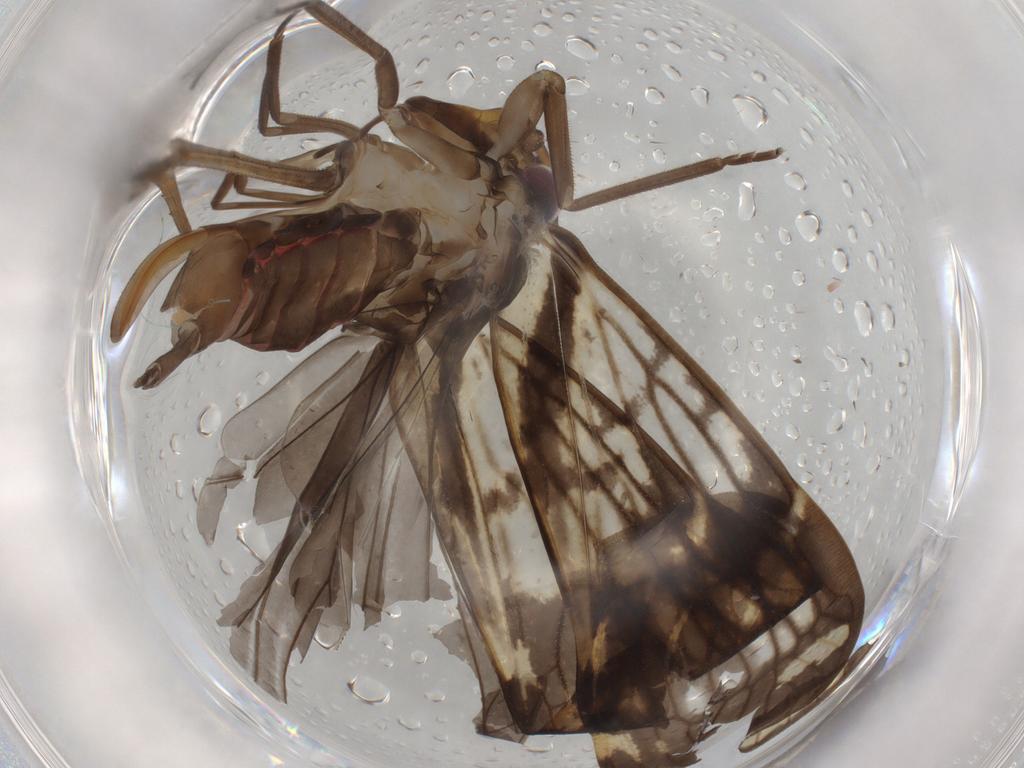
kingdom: Animalia
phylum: Arthropoda
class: Insecta
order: Hemiptera
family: Cixiidae
